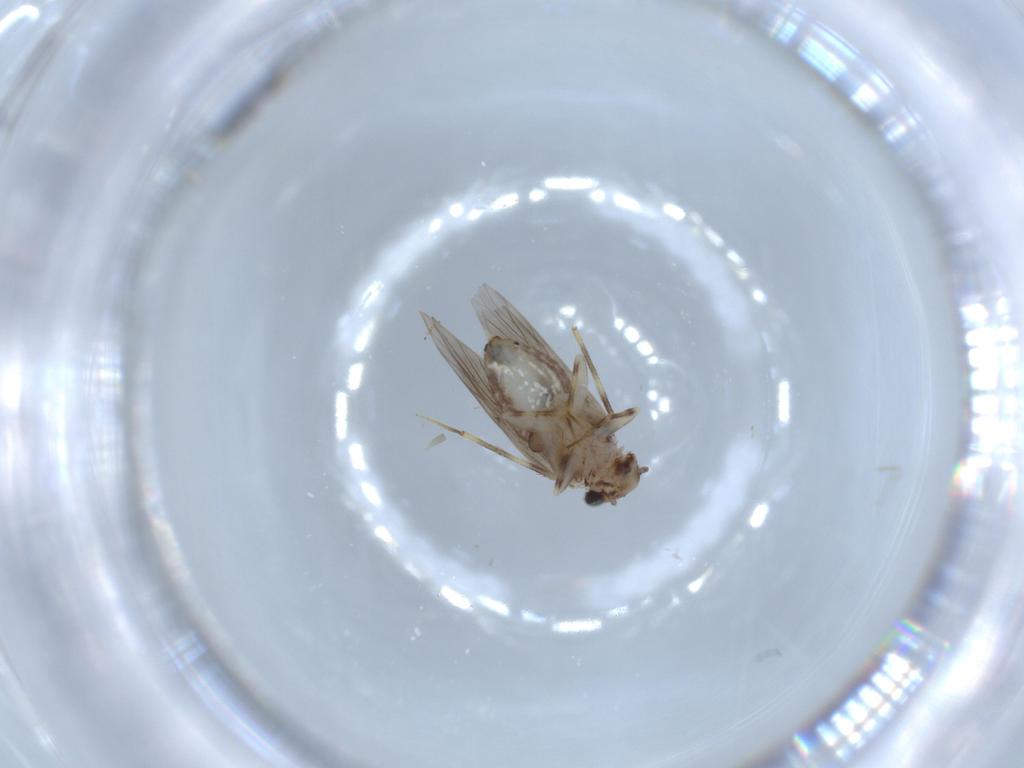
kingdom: Animalia
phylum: Arthropoda
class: Insecta
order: Psocodea
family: Lepidopsocidae
